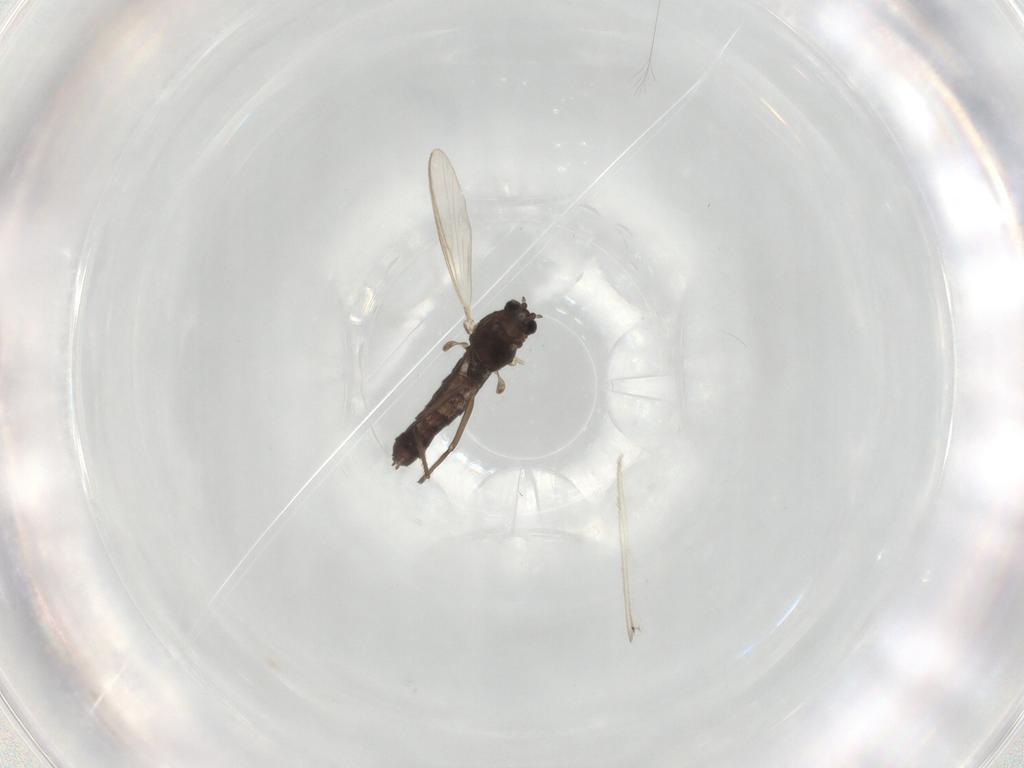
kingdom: Animalia
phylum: Arthropoda
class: Insecta
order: Diptera
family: Chironomidae
